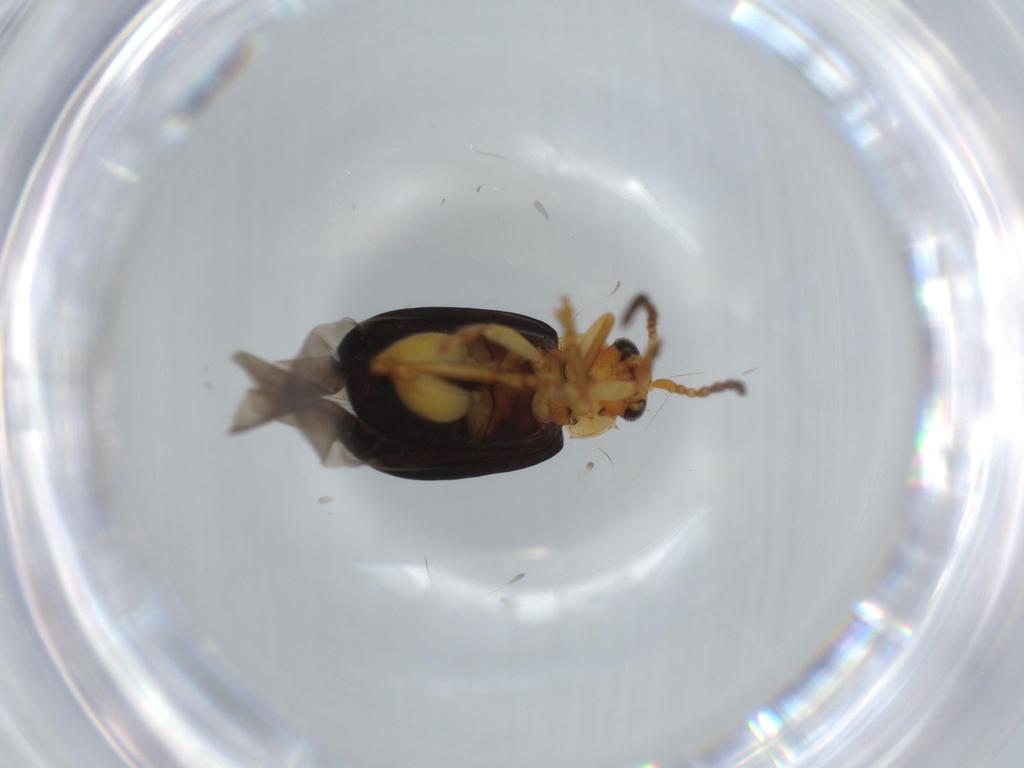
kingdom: Animalia
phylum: Arthropoda
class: Insecta
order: Coleoptera
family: Chrysomelidae
